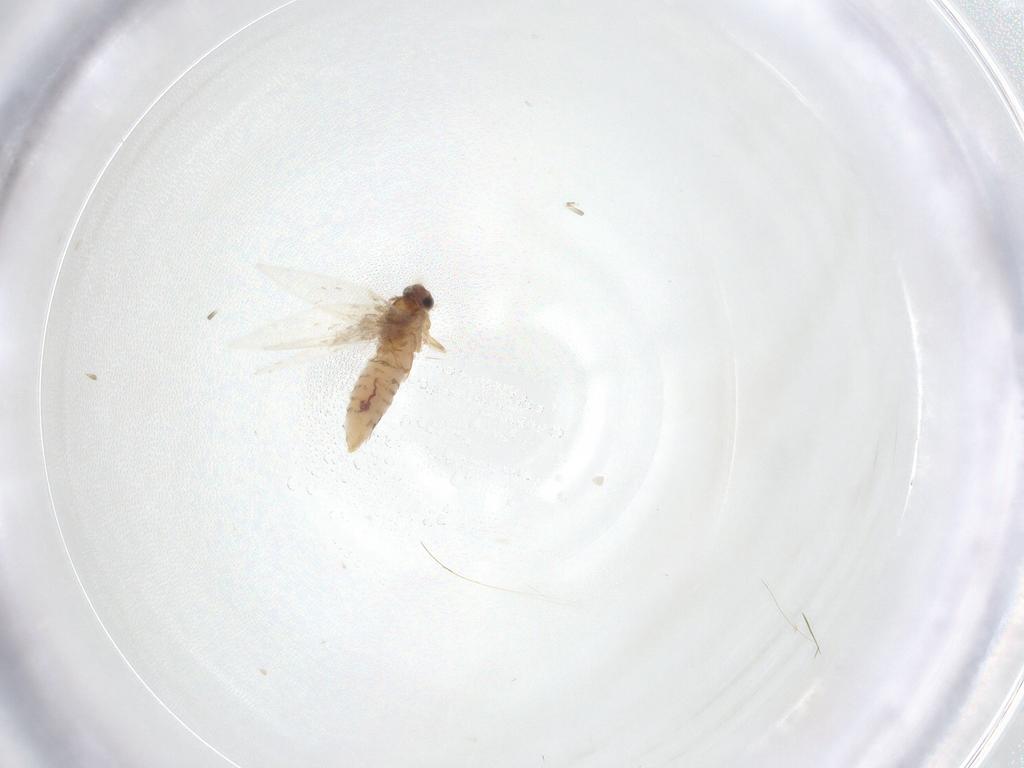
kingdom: Animalia
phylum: Arthropoda
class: Insecta
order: Lepidoptera
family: Nepticulidae
